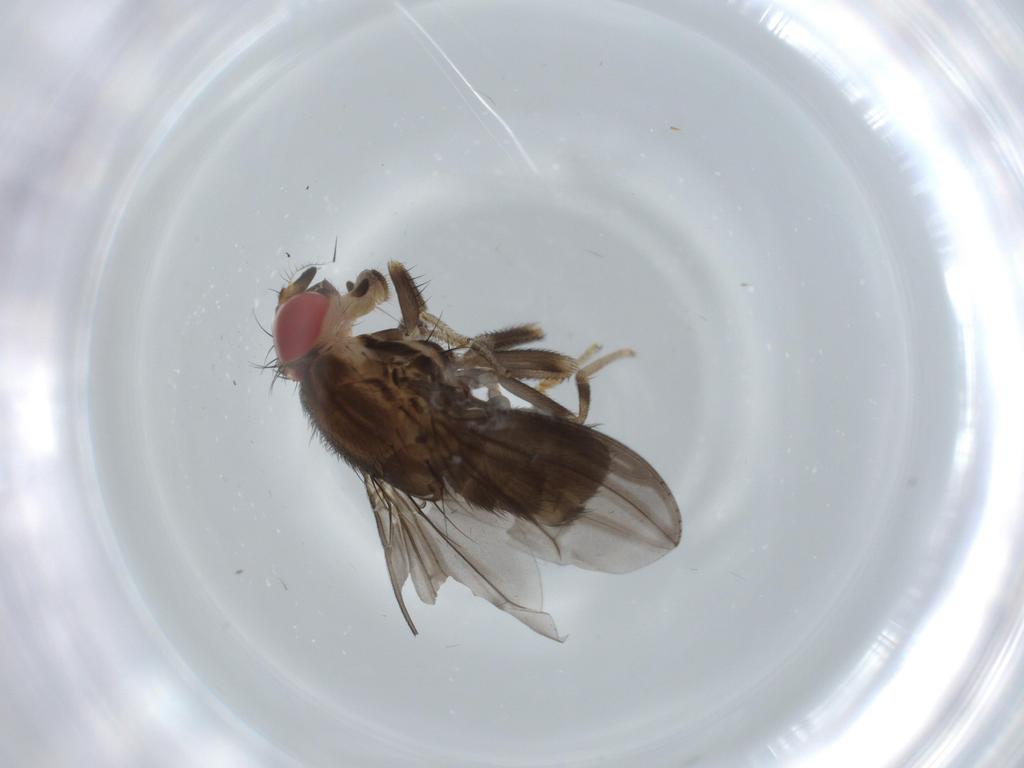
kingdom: Animalia
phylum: Arthropoda
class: Insecta
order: Diptera
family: Drosophilidae
